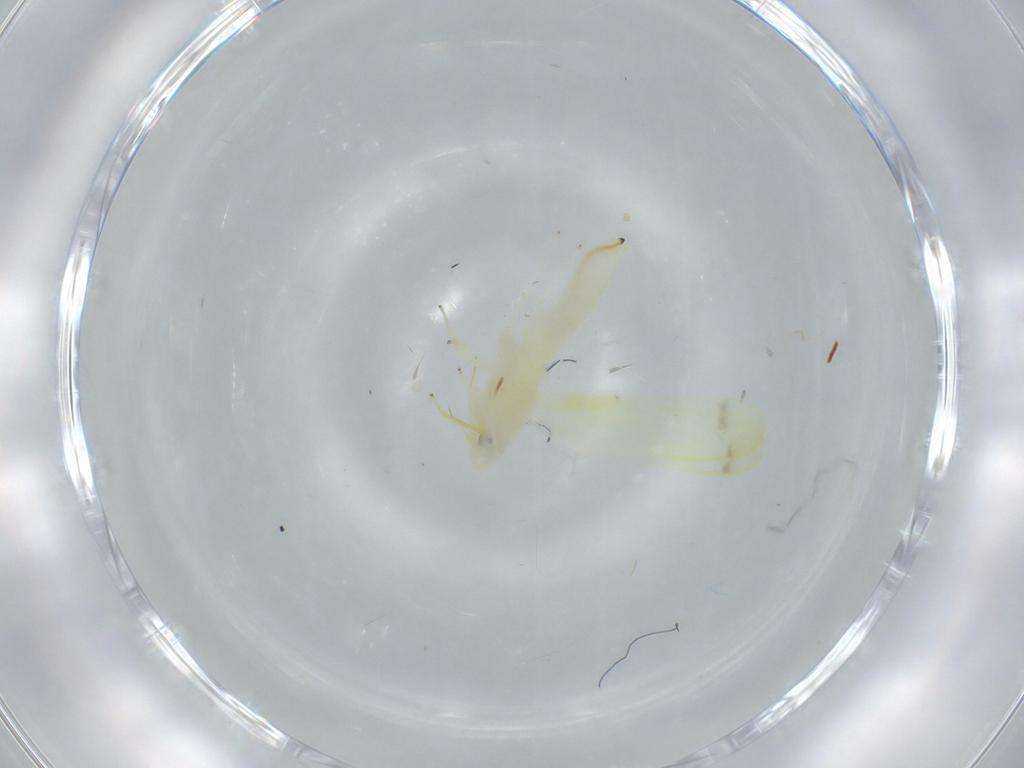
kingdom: Animalia
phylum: Arthropoda
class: Insecta
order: Hemiptera
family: Cicadellidae
